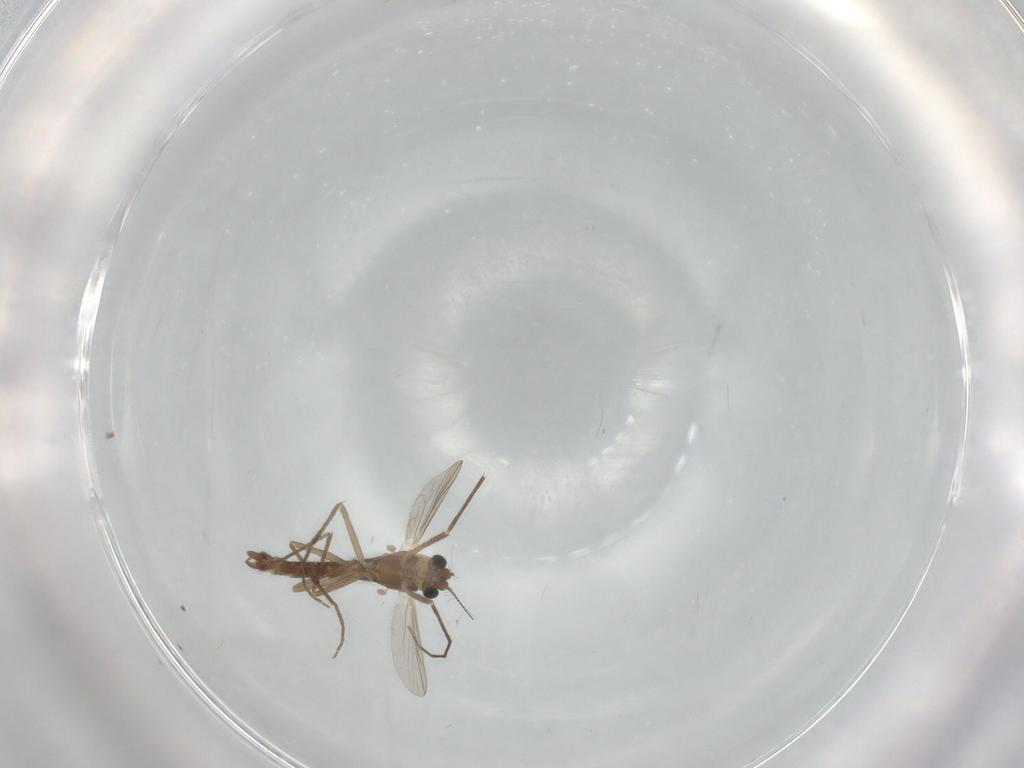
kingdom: Animalia
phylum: Arthropoda
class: Insecta
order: Diptera
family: Chironomidae
